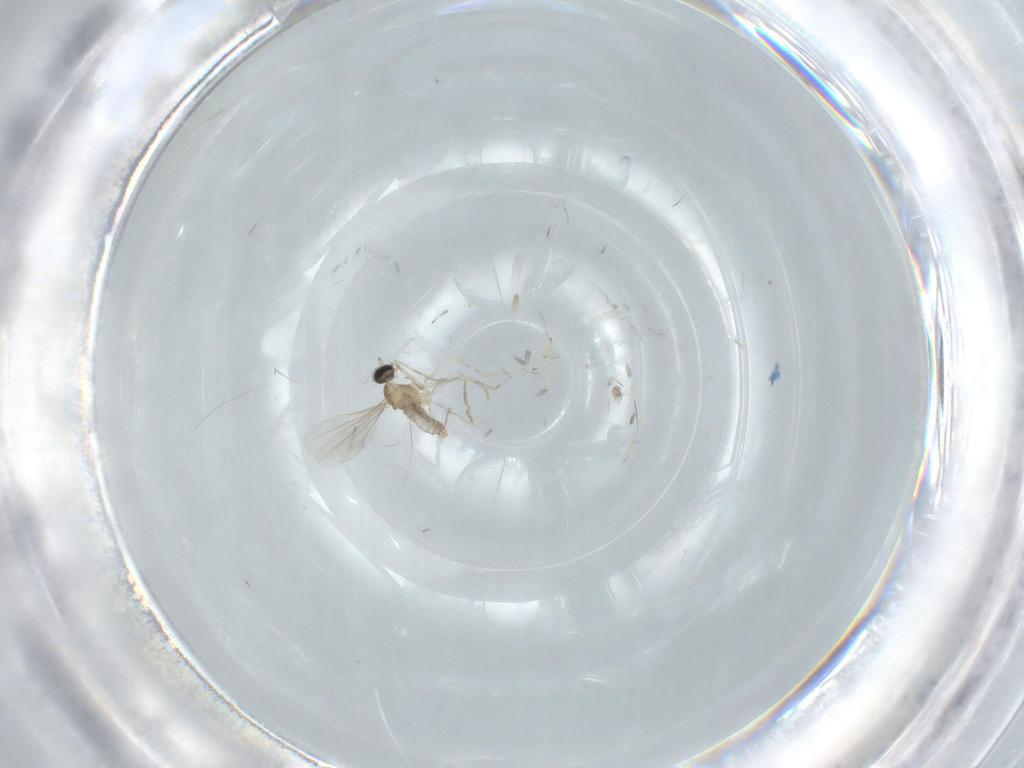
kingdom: Animalia
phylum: Arthropoda
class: Insecta
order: Diptera
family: Cecidomyiidae
